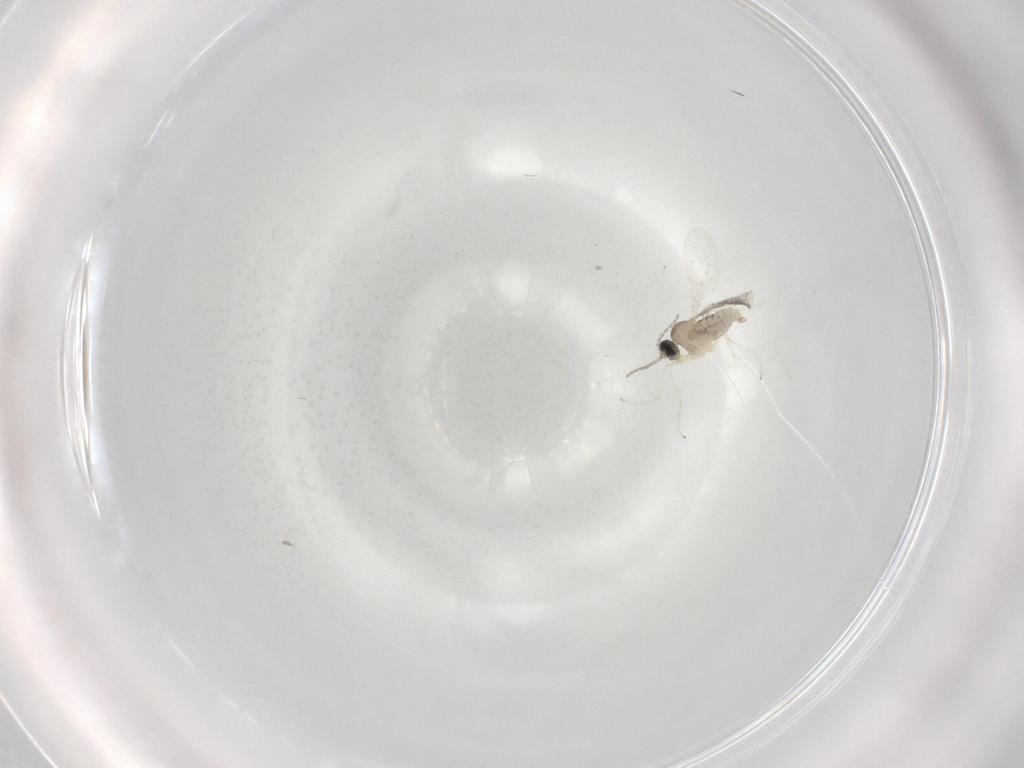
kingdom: Animalia
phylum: Arthropoda
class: Insecta
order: Diptera
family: Cecidomyiidae
